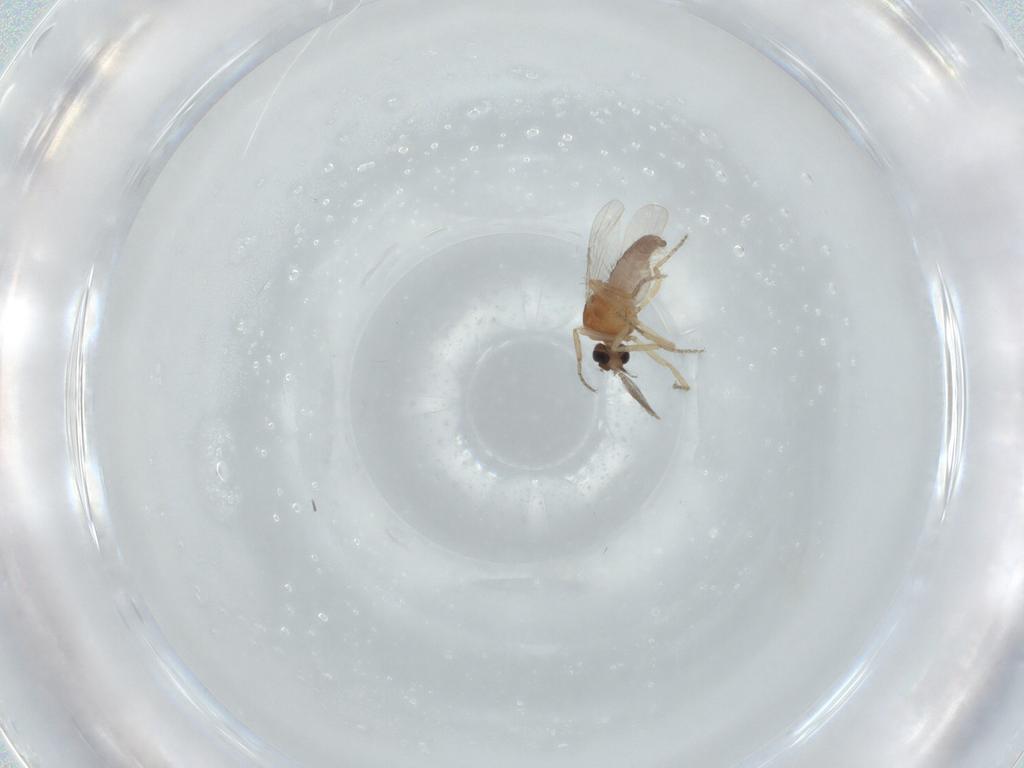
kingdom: Animalia
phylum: Arthropoda
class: Insecta
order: Diptera
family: Ceratopogonidae
